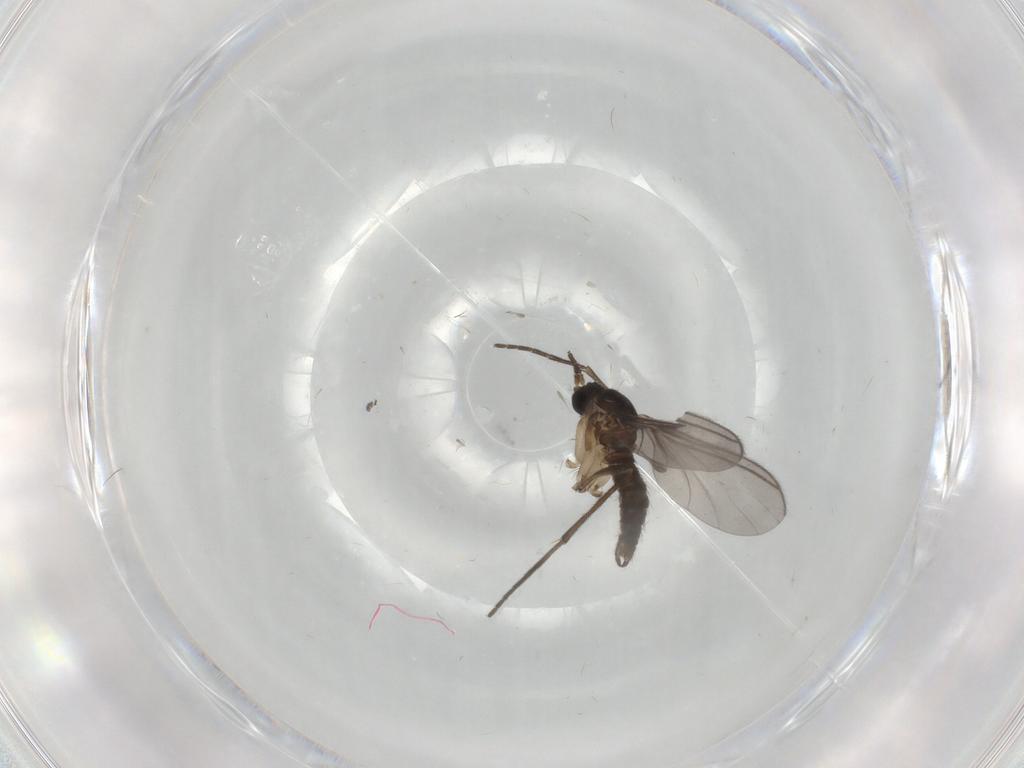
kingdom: Animalia
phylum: Arthropoda
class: Insecta
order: Diptera
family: Sciaridae
